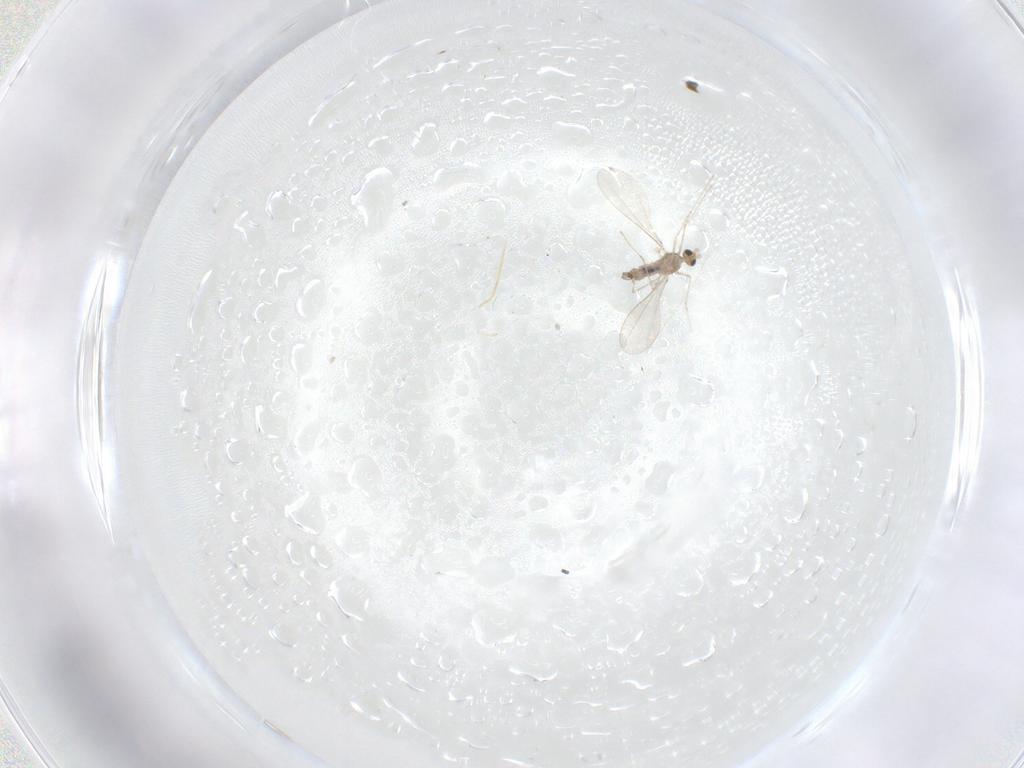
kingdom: Animalia
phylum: Arthropoda
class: Insecta
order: Diptera
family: Cecidomyiidae
